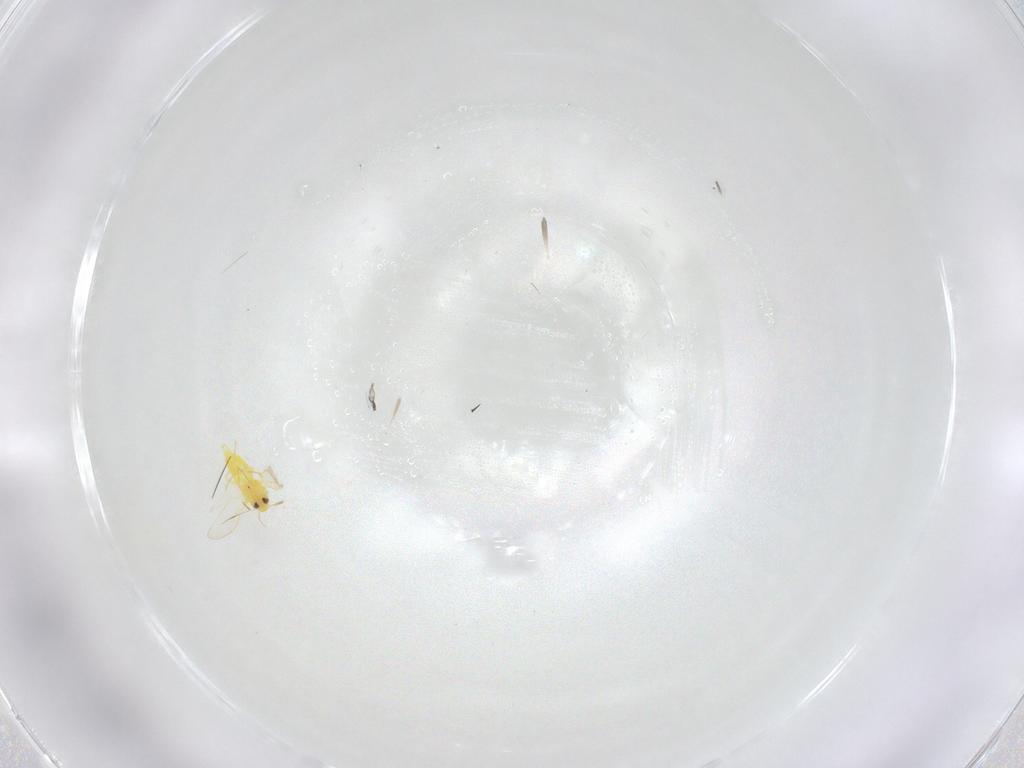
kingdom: Animalia
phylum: Arthropoda
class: Insecta
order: Hemiptera
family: Aleyrodidae
